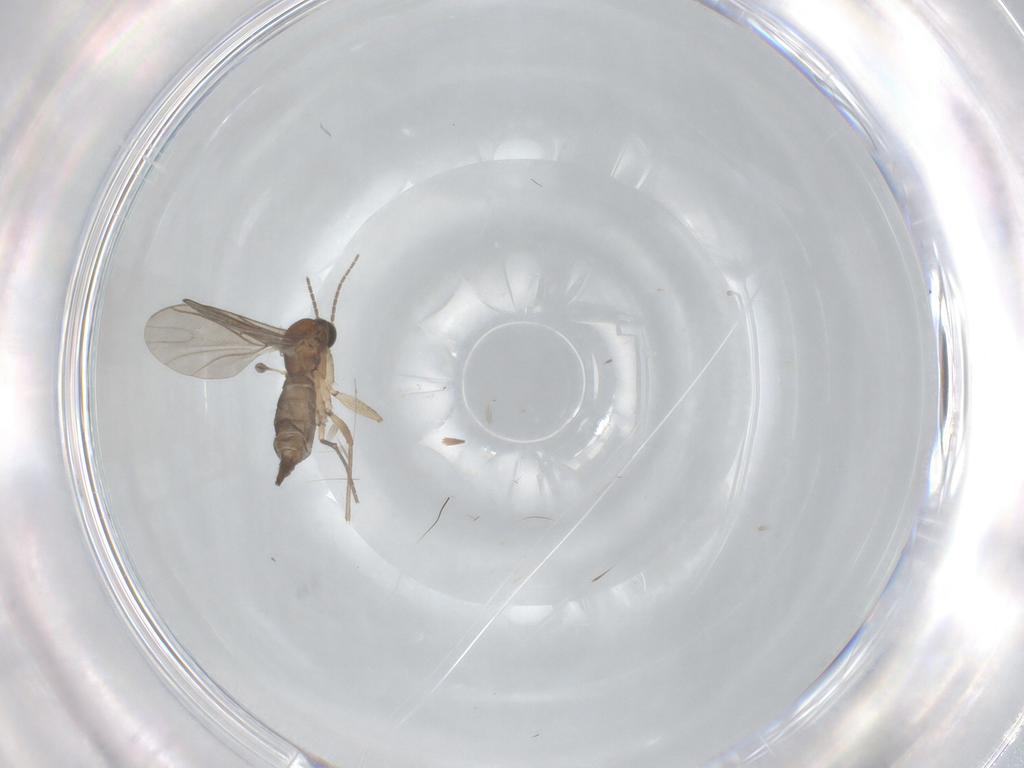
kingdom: Animalia
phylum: Arthropoda
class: Insecta
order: Diptera
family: Sciaridae
